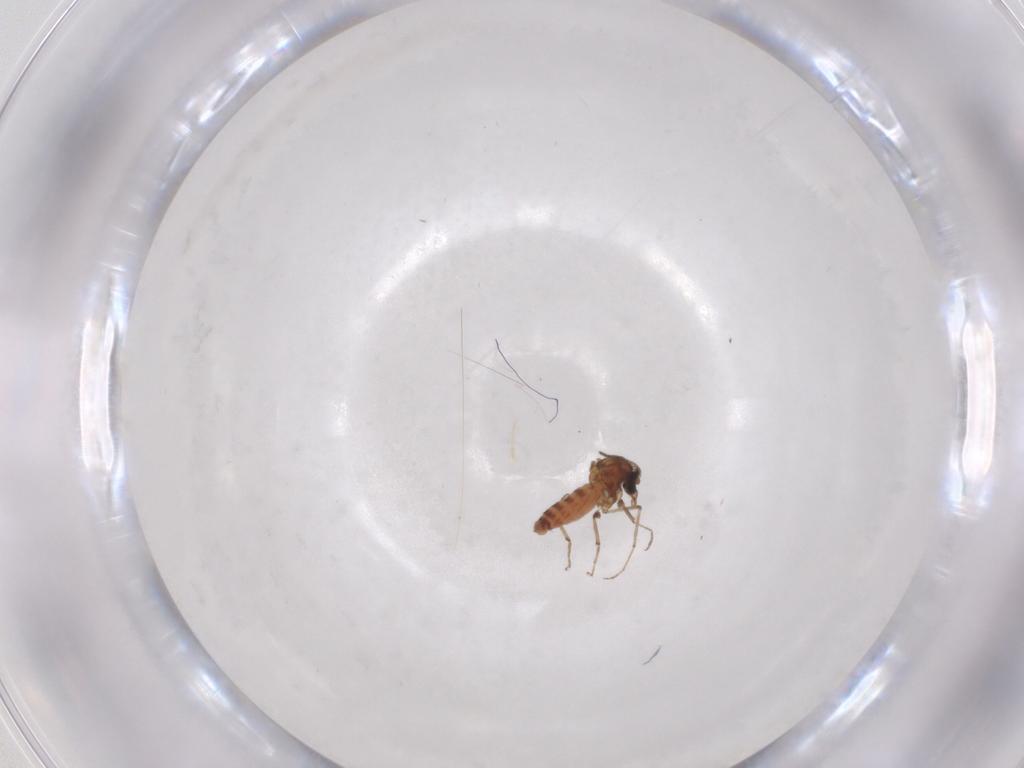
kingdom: Animalia
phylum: Arthropoda
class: Insecta
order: Diptera
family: Ceratopogonidae
